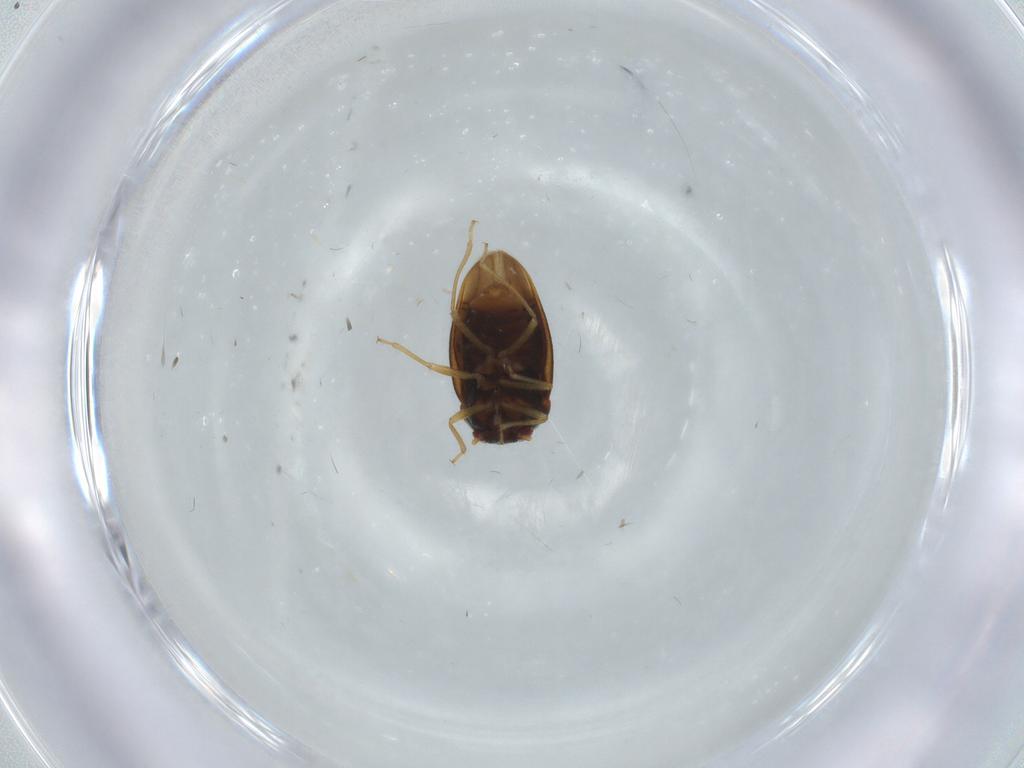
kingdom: Animalia
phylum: Arthropoda
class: Insecta
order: Hemiptera
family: Schizopteridae
